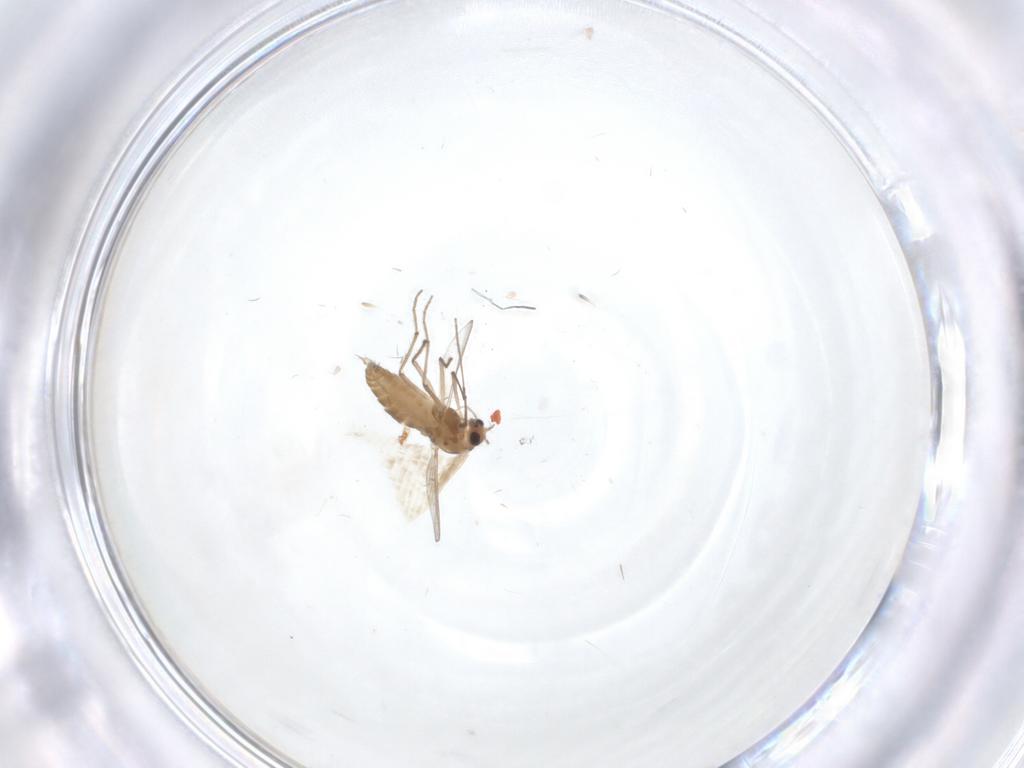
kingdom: Animalia
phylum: Arthropoda
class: Insecta
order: Diptera
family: Chironomidae
